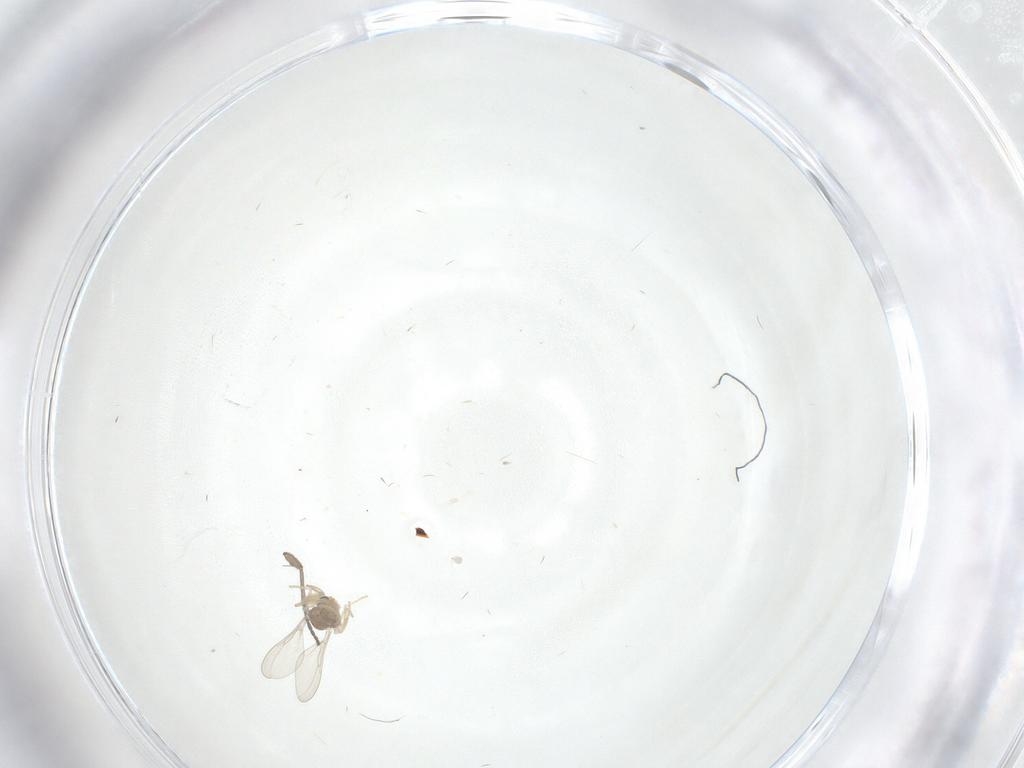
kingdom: Animalia
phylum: Arthropoda
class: Insecta
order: Diptera
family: Cecidomyiidae
